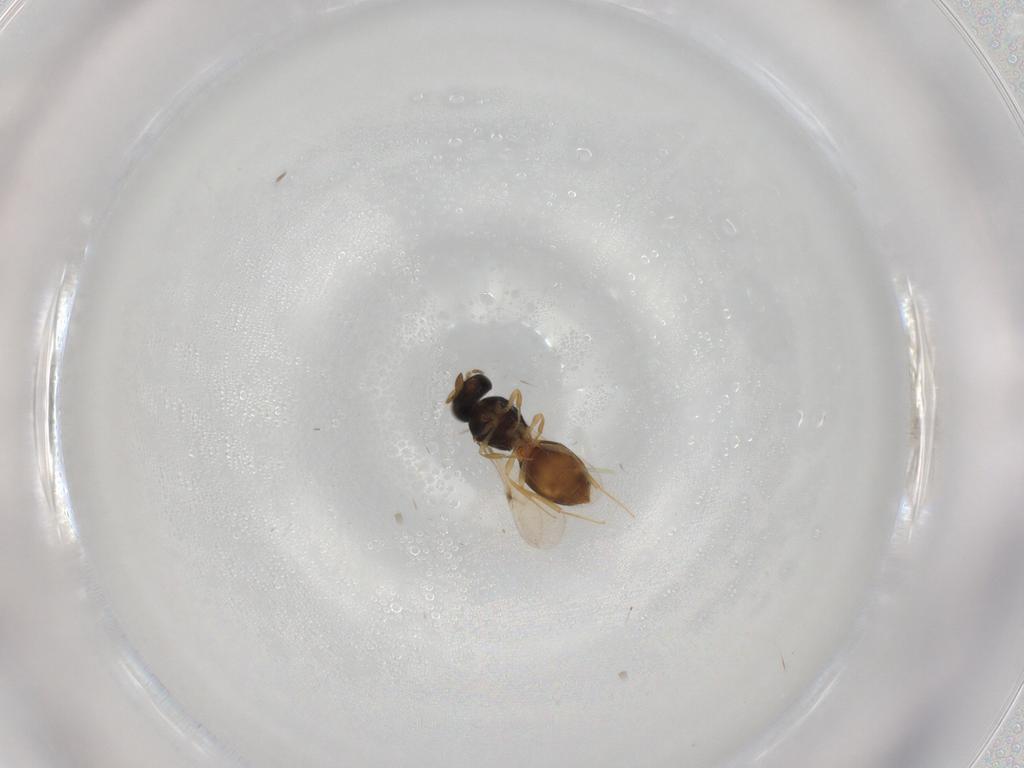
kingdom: Animalia
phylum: Arthropoda
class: Insecta
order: Hymenoptera
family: Scelionidae
